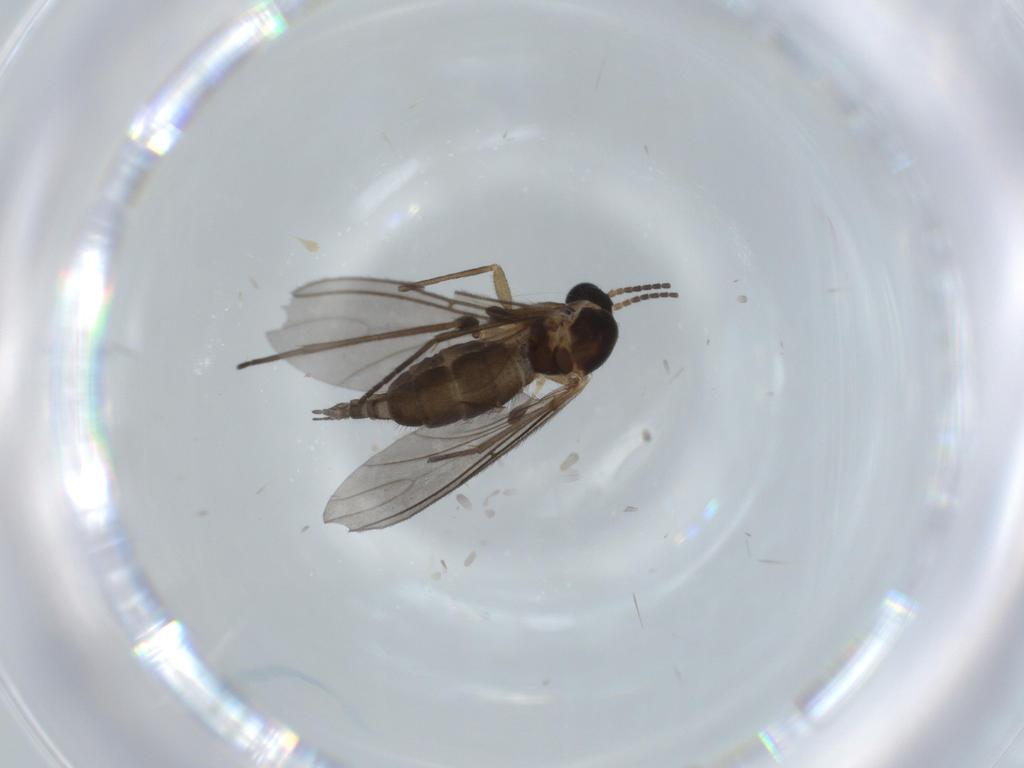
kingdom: Animalia
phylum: Arthropoda
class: Insecta
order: Diptera
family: Sciaridae
